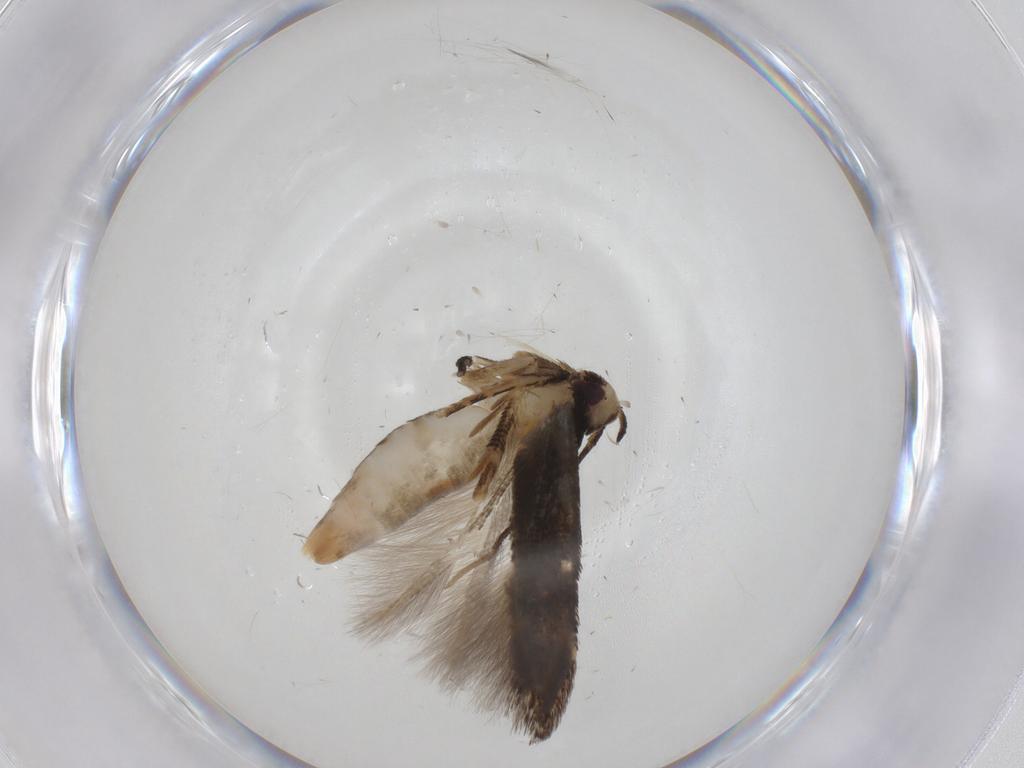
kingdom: Animalia
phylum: Arthropoda
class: Insecta
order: Lepidoptera
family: Cosmopterigidae
